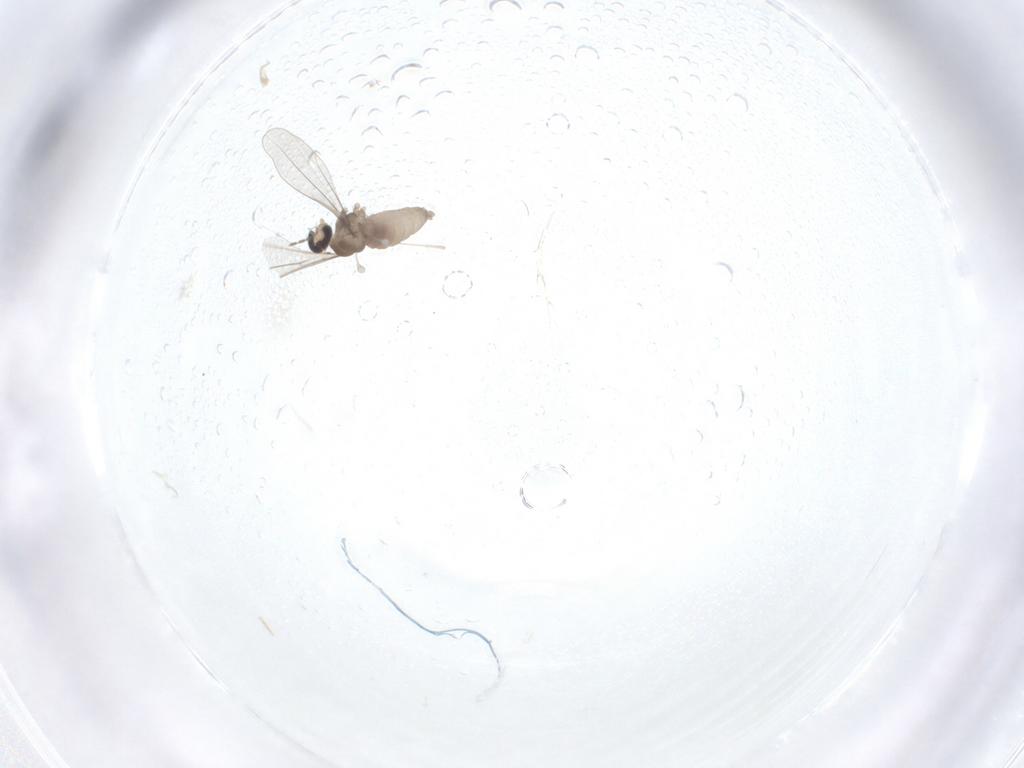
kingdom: Animalia
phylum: Arthropoda
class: Insecta
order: Diptera
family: Cecidomyiidae
